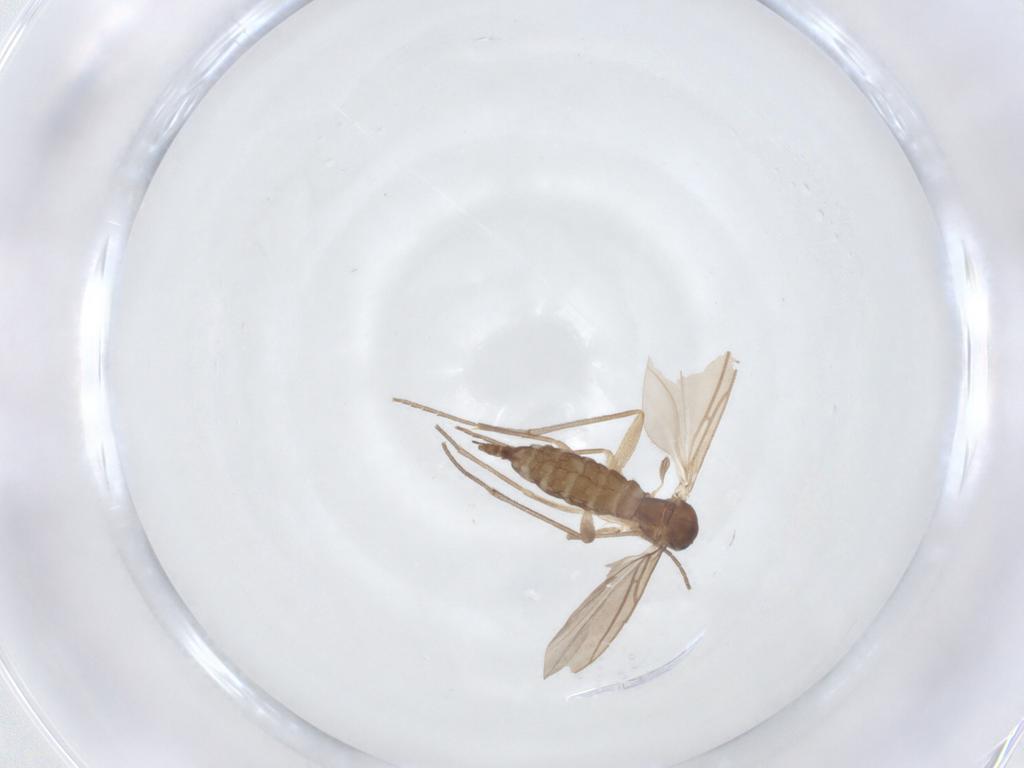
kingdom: Animalia
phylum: Arthropoda
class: Insecta
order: Diptera
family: Sciaridae
